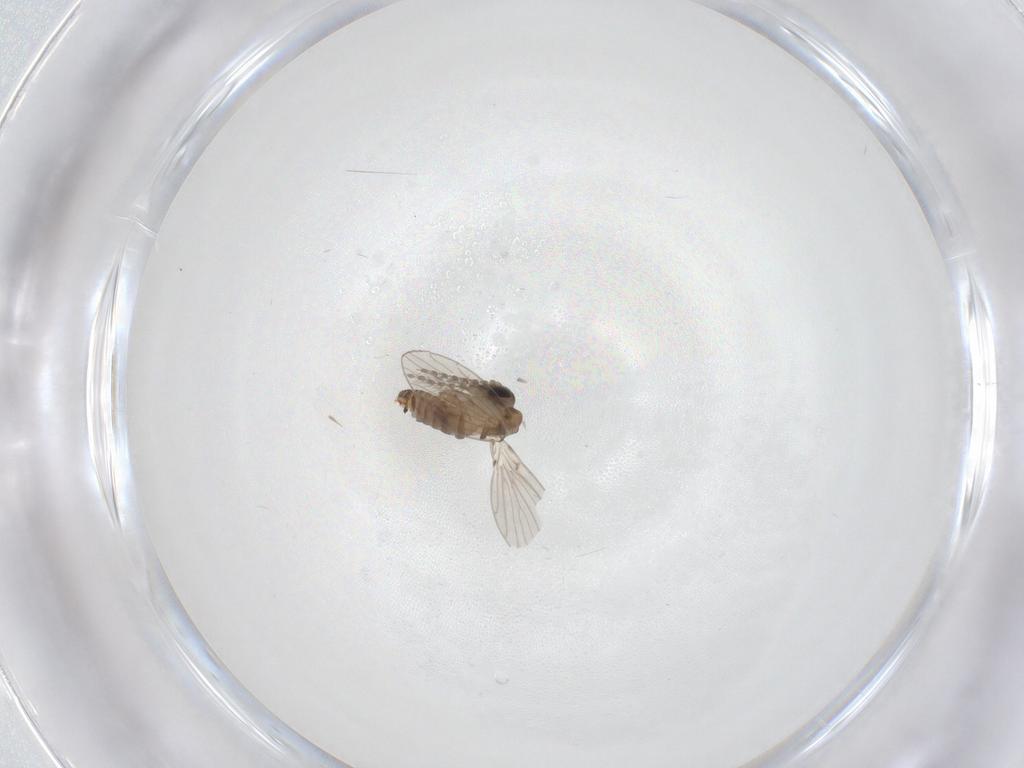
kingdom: Animalia
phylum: Arthropoda
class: Insecta
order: Diptera
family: Psychodidae
